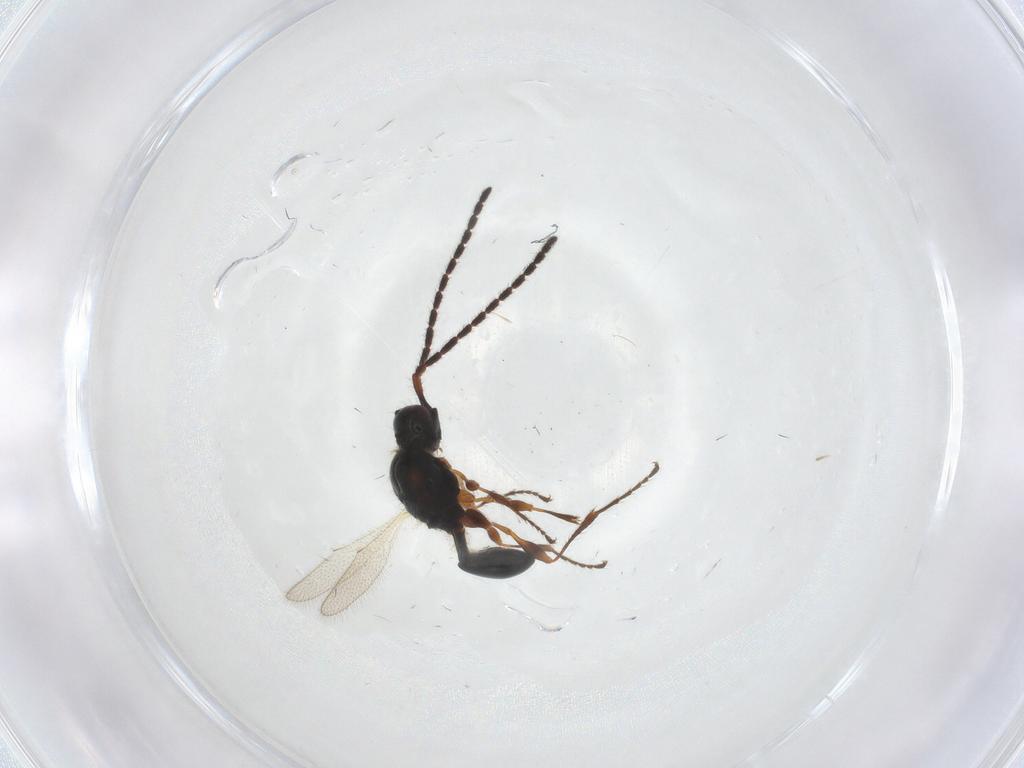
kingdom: Animalia
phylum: Arthropoda
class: Insecta
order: Hymenoptera
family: Diapriidae
